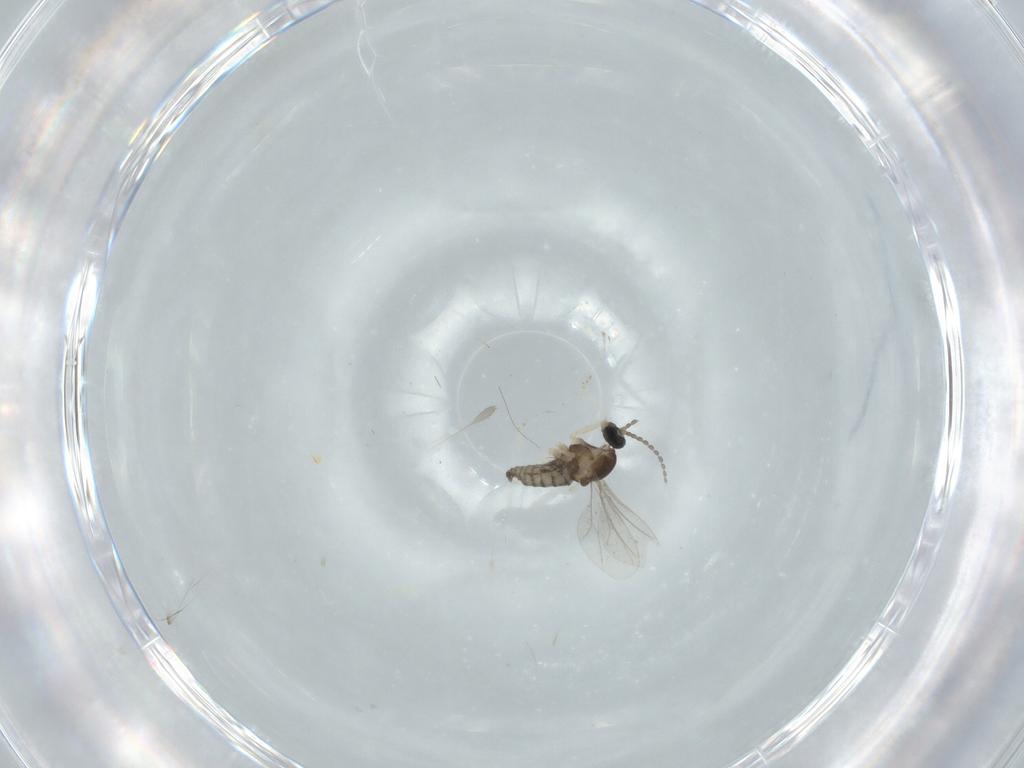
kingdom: Animalia
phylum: Arthropoda
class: Insecta
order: Diptera
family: Cecidomyiidae
